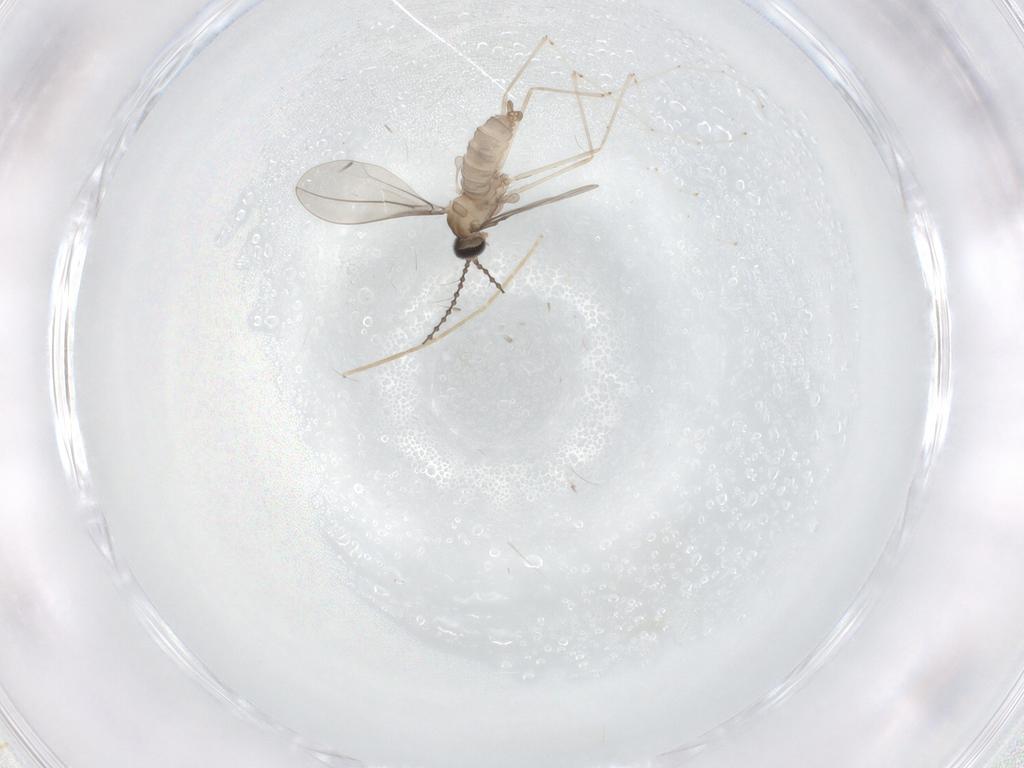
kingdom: Animalia
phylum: Arthropoda
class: Insecta
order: Diptera
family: Cecidomyiidae
